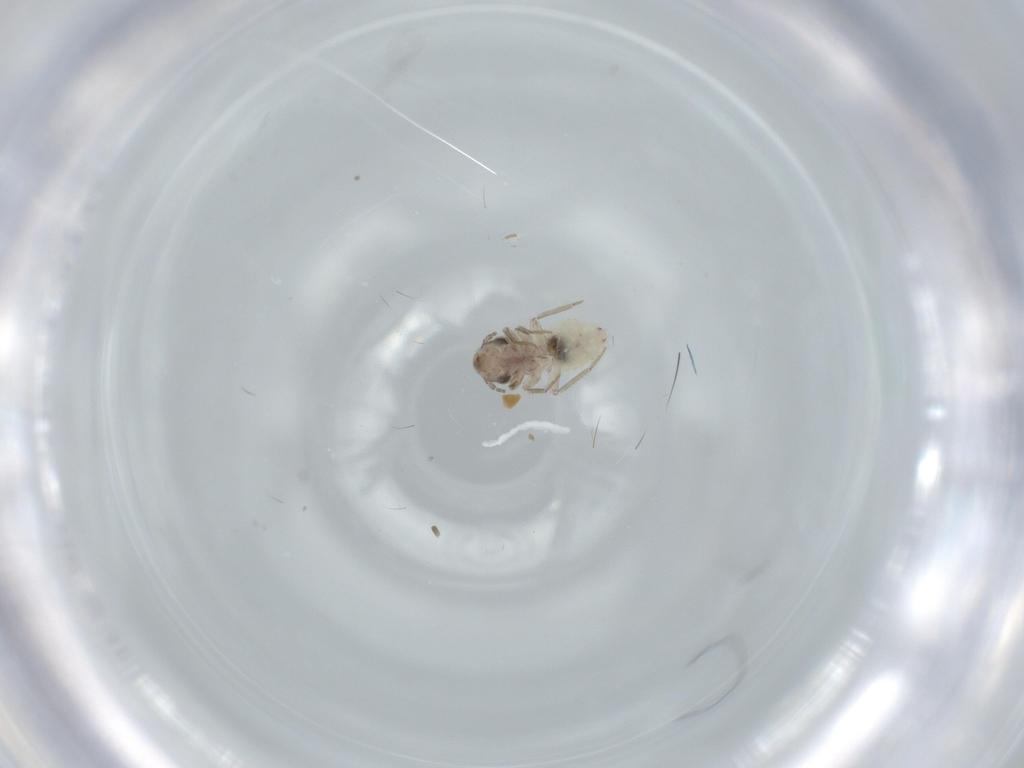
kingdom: Animalia
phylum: Arthropoda
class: Insecta
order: Psocodea
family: Lepidopsocidae
